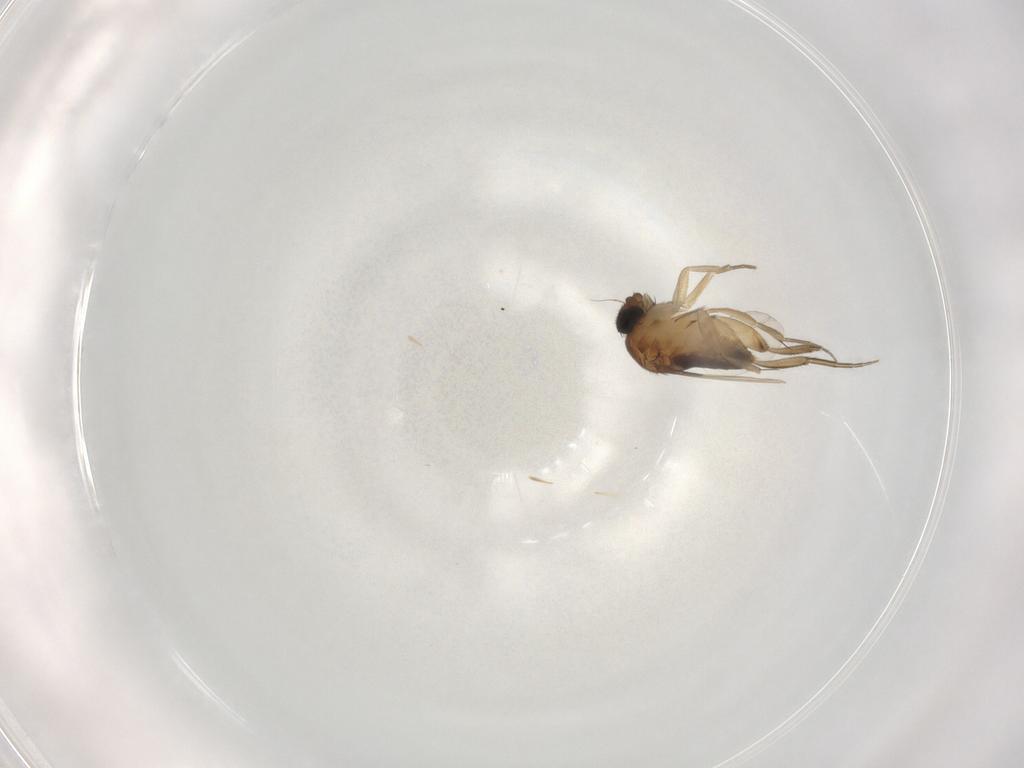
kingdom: Animalia
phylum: Arthropoda
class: Insecta
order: Diptera
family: Phoridae
